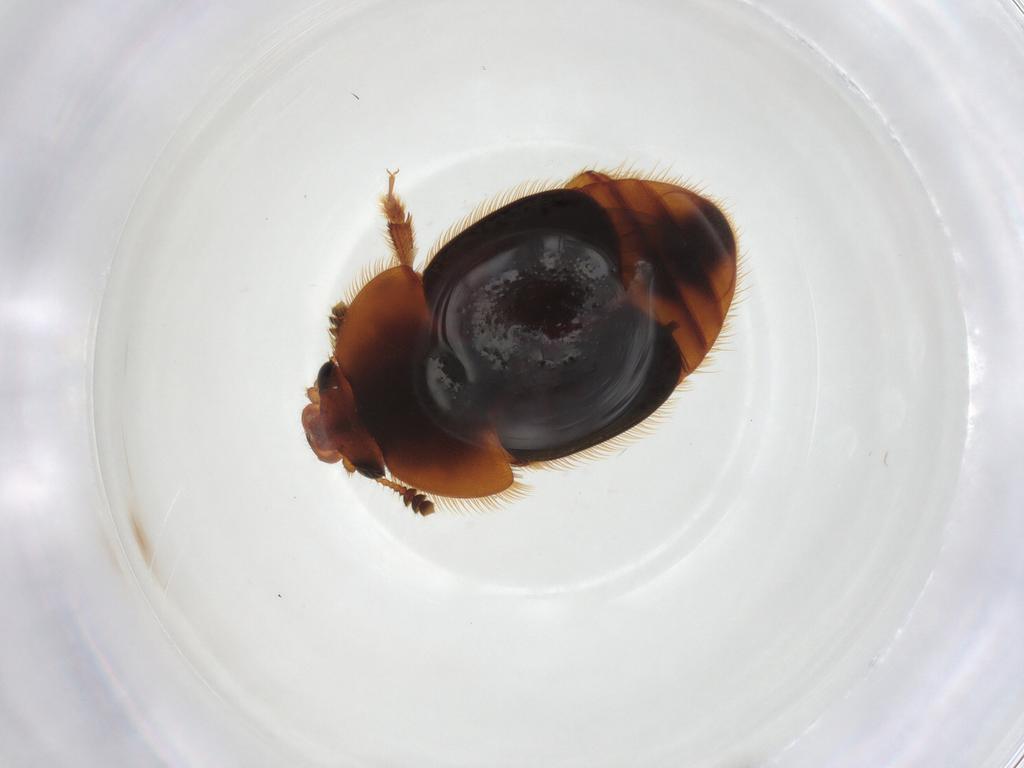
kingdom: Animalia
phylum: Arthropoda
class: Insecta
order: Coleoptera
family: Nitidulidae
